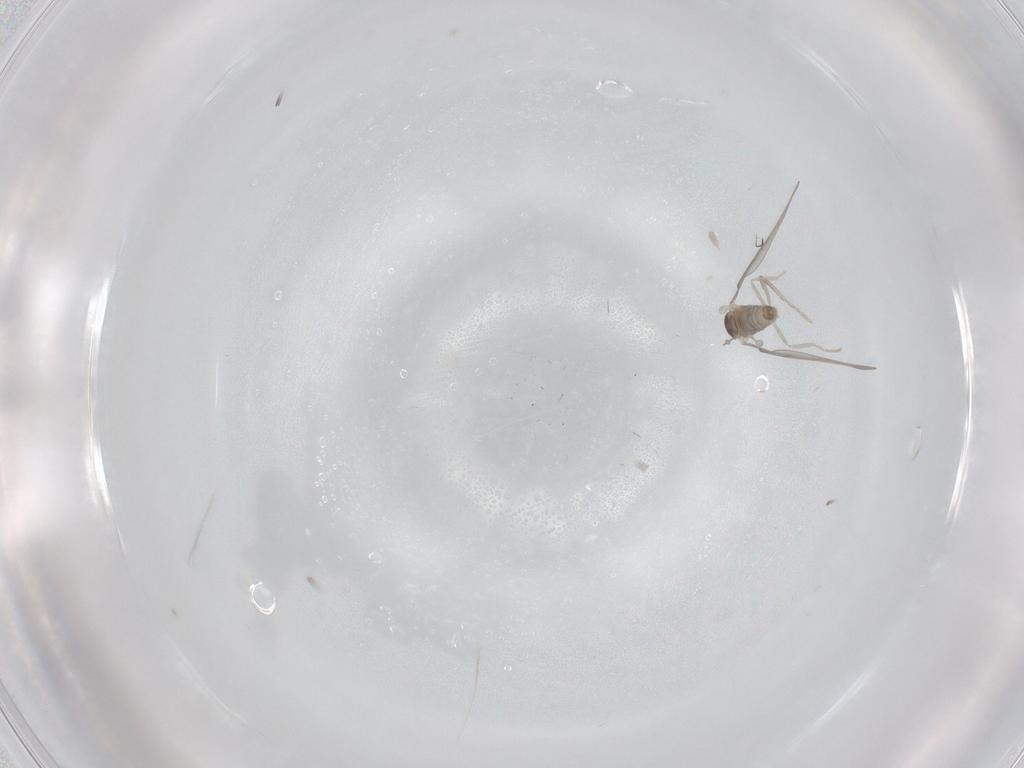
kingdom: Animalia
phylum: Arthropoda
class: Insecta
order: Diptera
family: Cecidomyiidae
